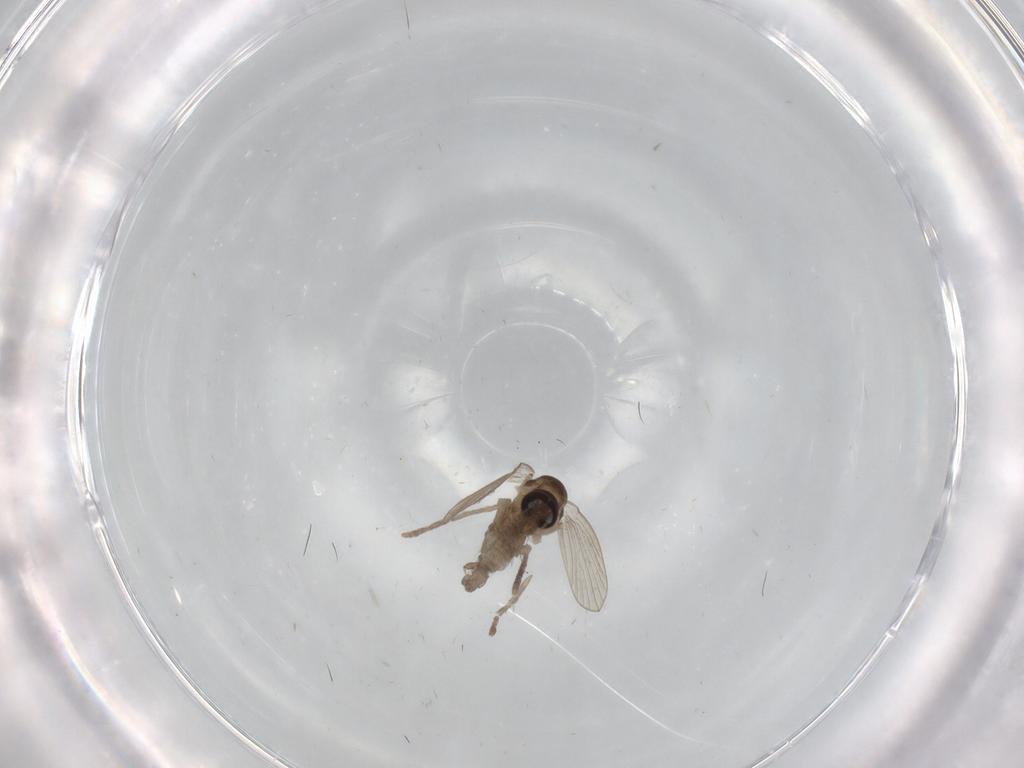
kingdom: Animalia
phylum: Arthropoda
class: Insecta
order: Diptera
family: Psychodidae
